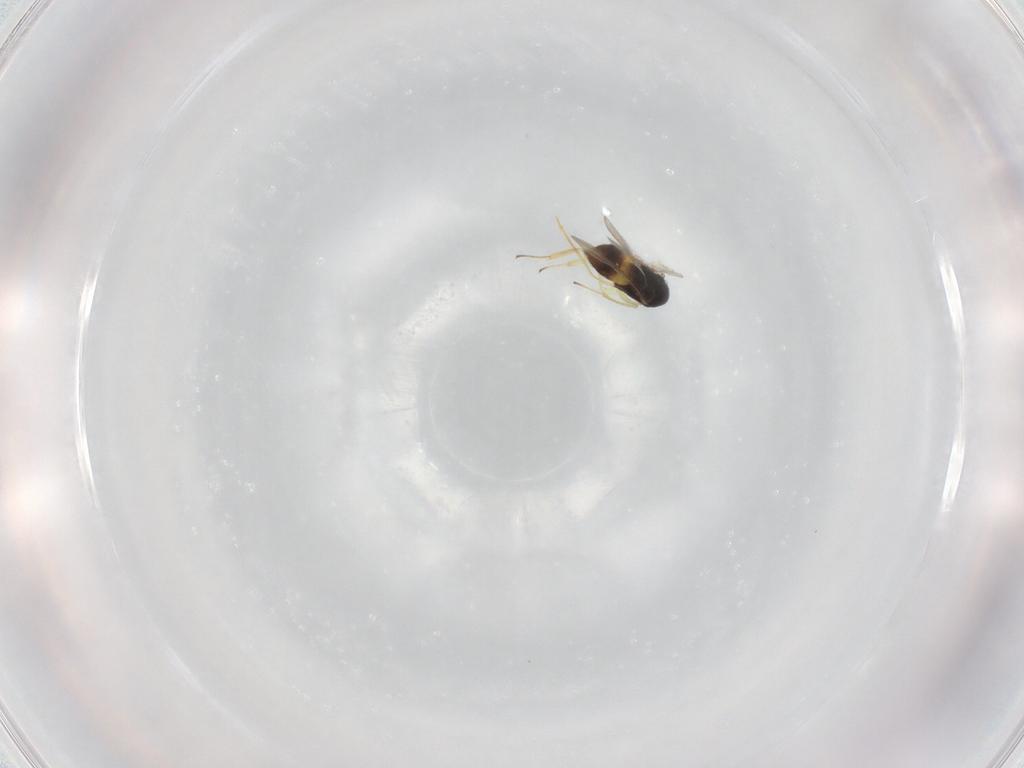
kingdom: Animalia
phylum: Arthropoda
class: Insecta
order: Hymenoptera
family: Aphelinidae
